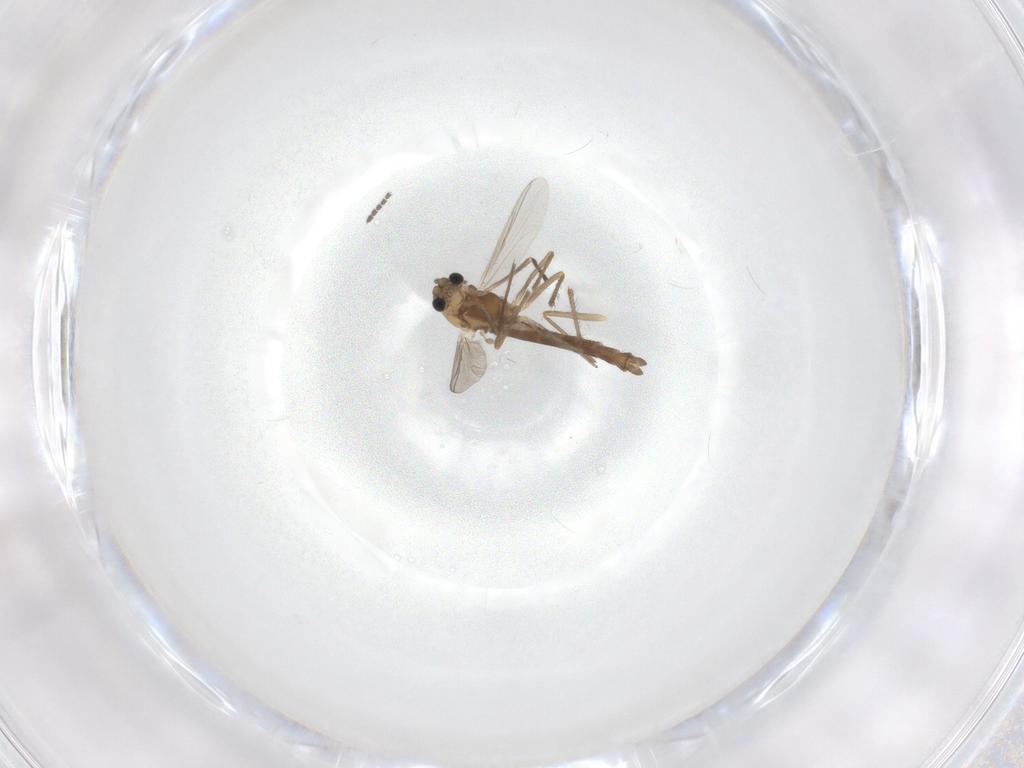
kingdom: Animalia
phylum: Arthropoda
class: Insecta
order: Diptera
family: Chironomidae
